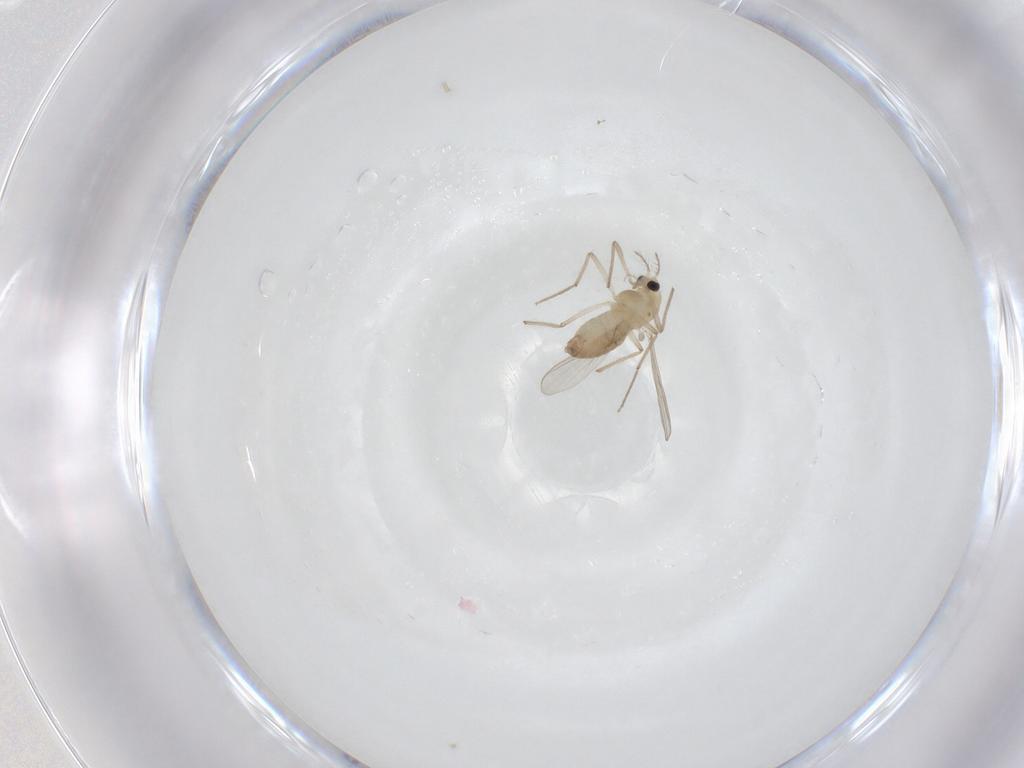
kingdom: Animalia
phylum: Arthropoda
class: Insecta
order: Diptera
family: Chironomidae
